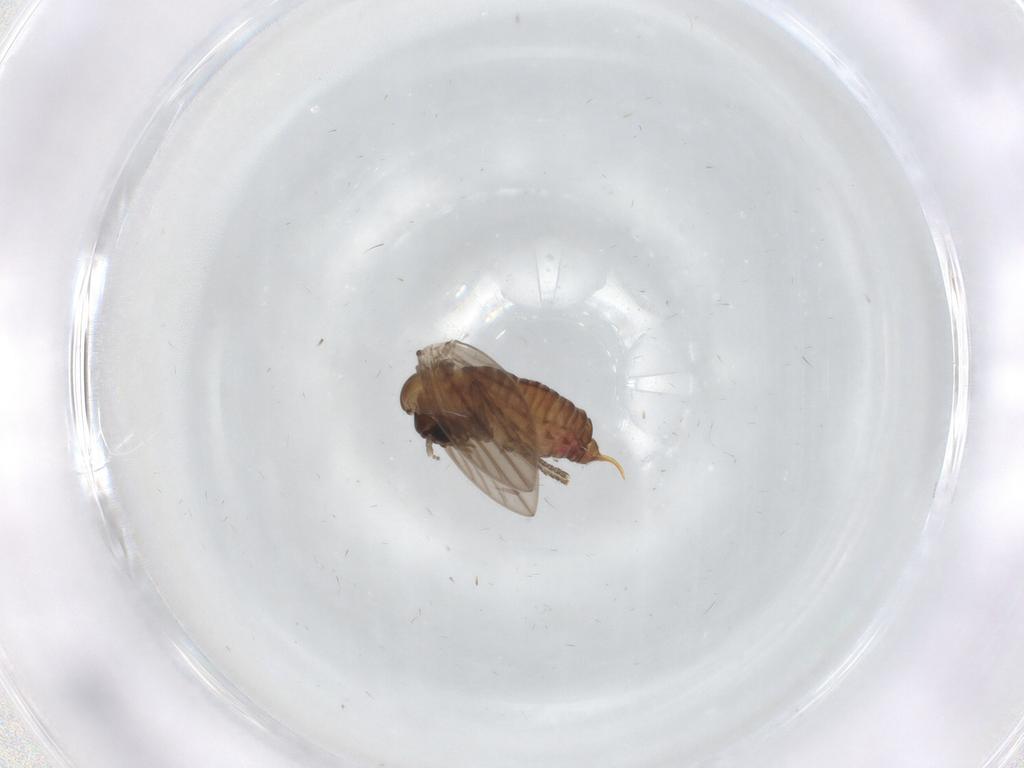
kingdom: Animalia
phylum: Arthropoda
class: Insecta
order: Diptera
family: Psychodidae
